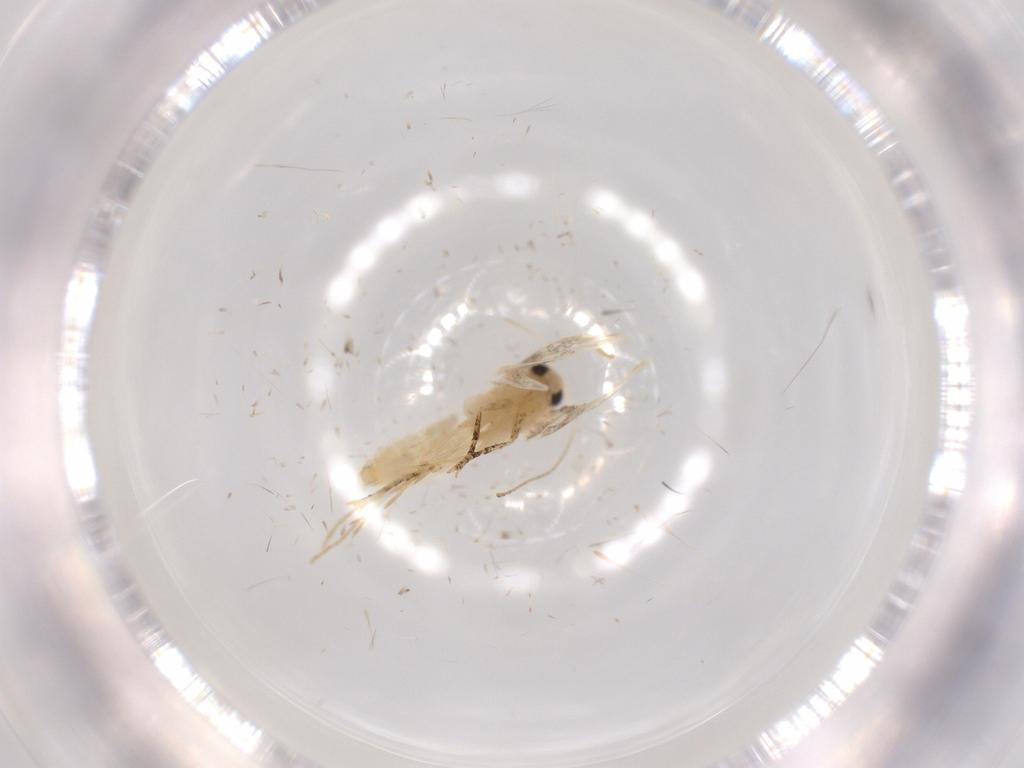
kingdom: Animalia
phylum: Arthropoda
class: Insecta
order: Lepidoptera
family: Bucculatricidae
